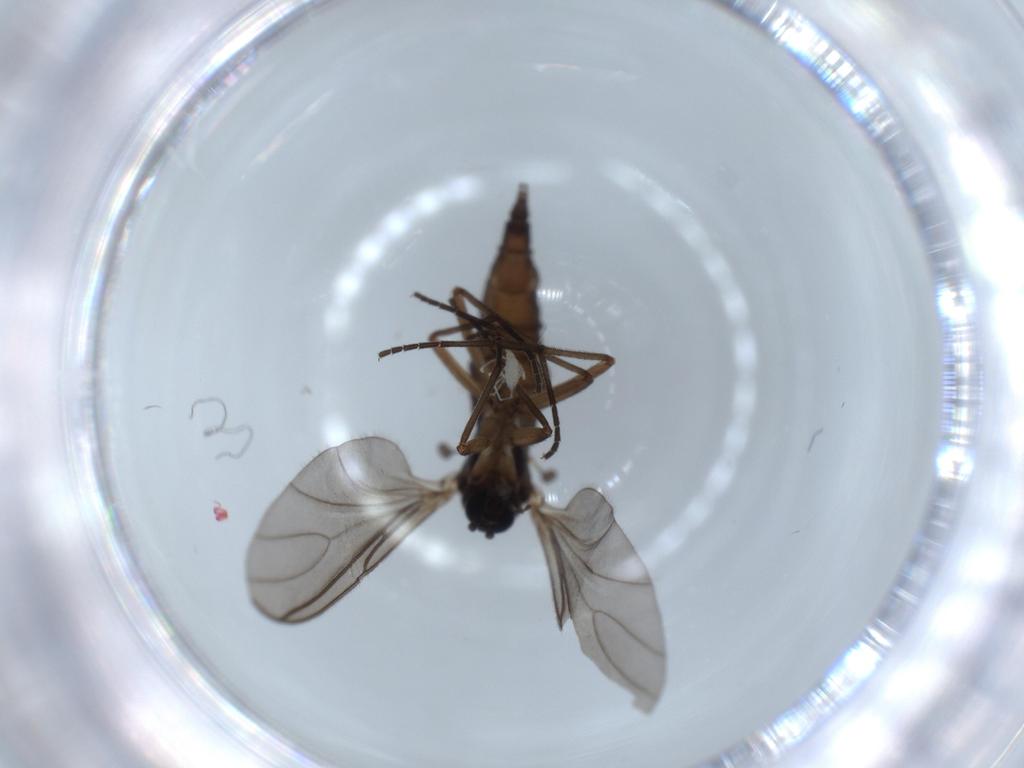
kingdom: Animalia
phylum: Arthropoda
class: Insecta
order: Diptera
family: Sciaridae
